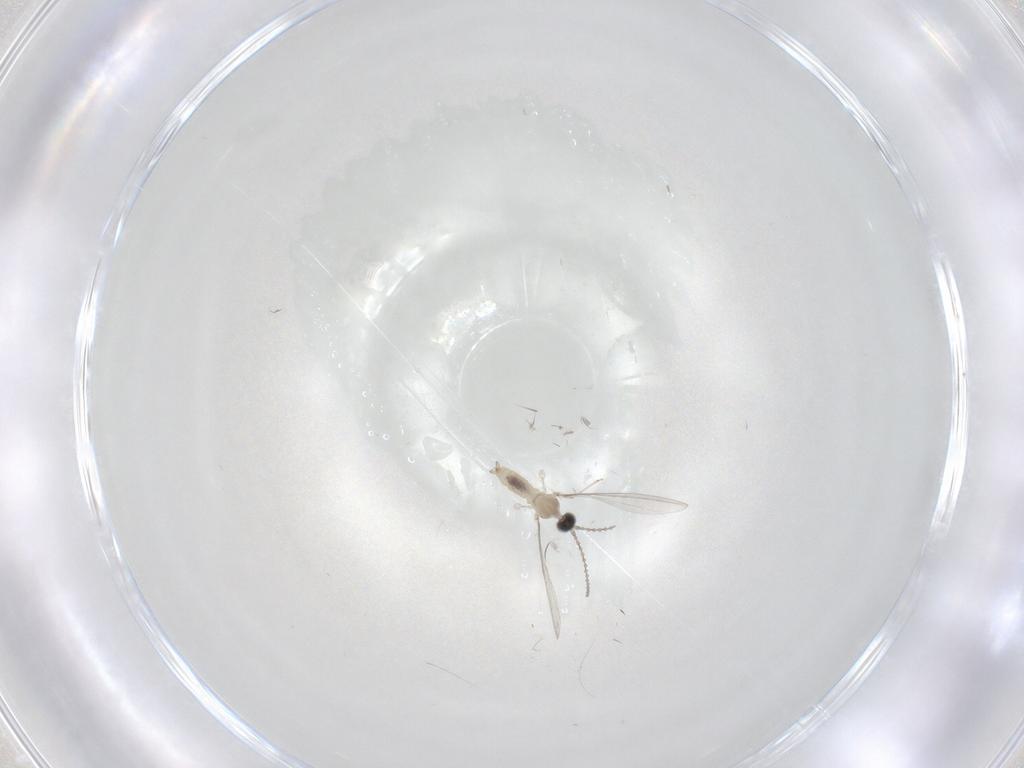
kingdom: Animalia
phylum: Arthropoda
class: Insecta
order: Diptera
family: Cecidomyiidae
